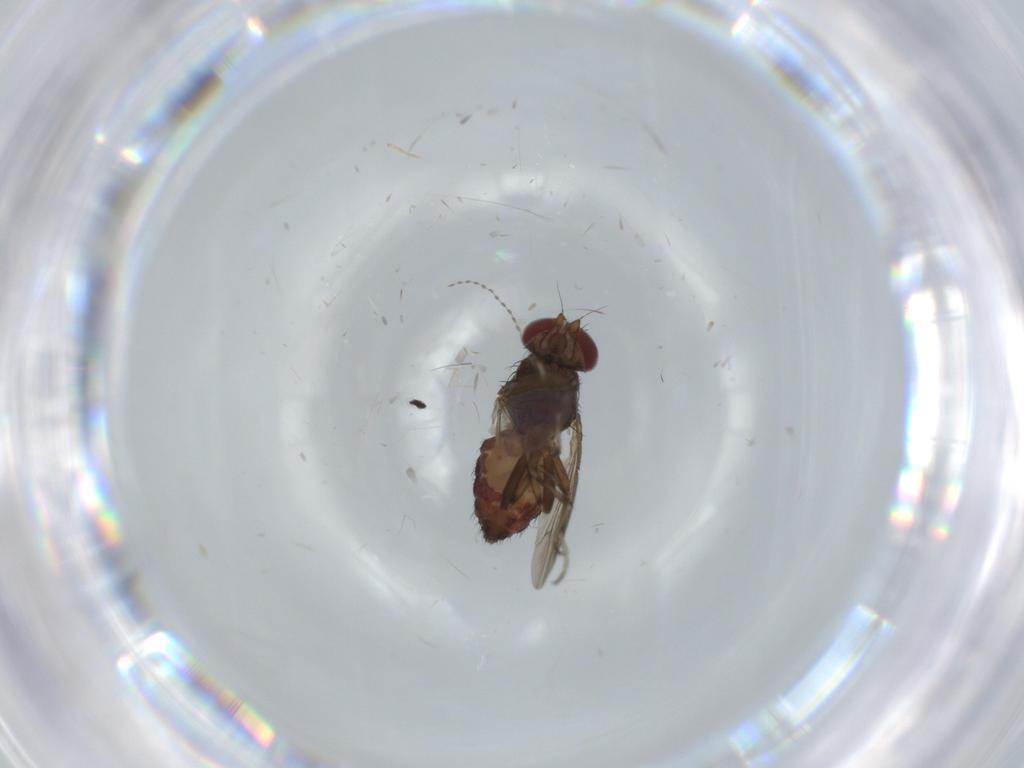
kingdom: Animalia
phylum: Arthropoda
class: Insecta
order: Diptera
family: Heleomyzidae
